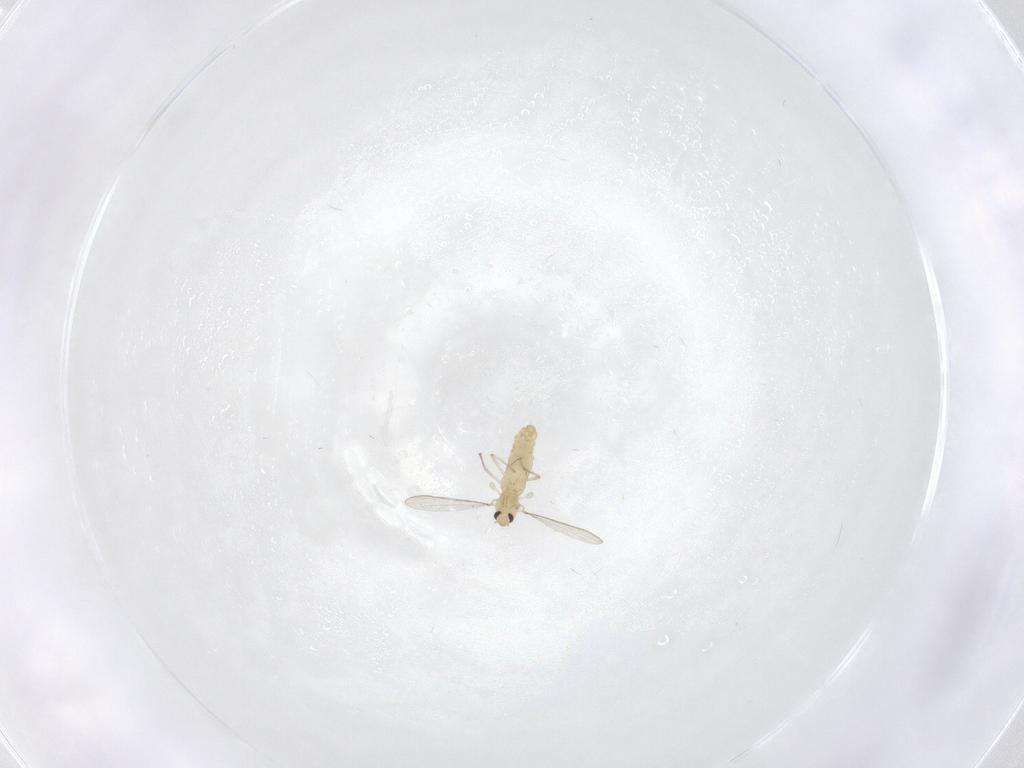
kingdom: Animalia
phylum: Arthropoda
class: Insecta
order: Diptera
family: Chironomidae
